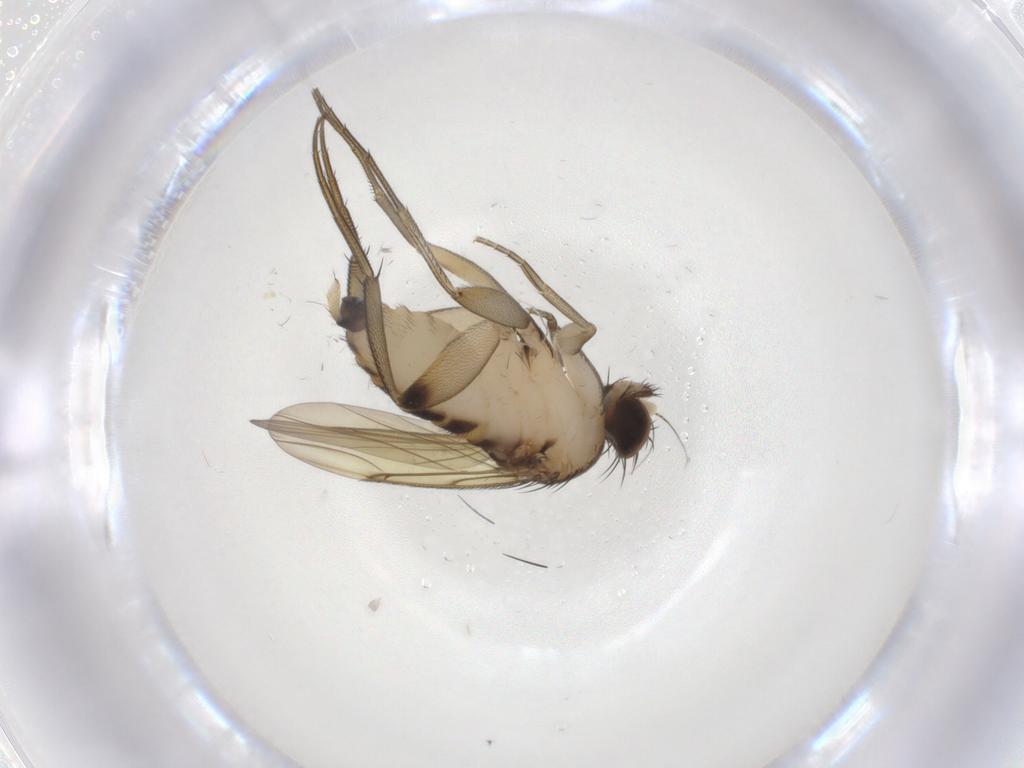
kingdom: Animalia
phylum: Arthropoda
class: Insecta
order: Diptera
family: Phoridae
